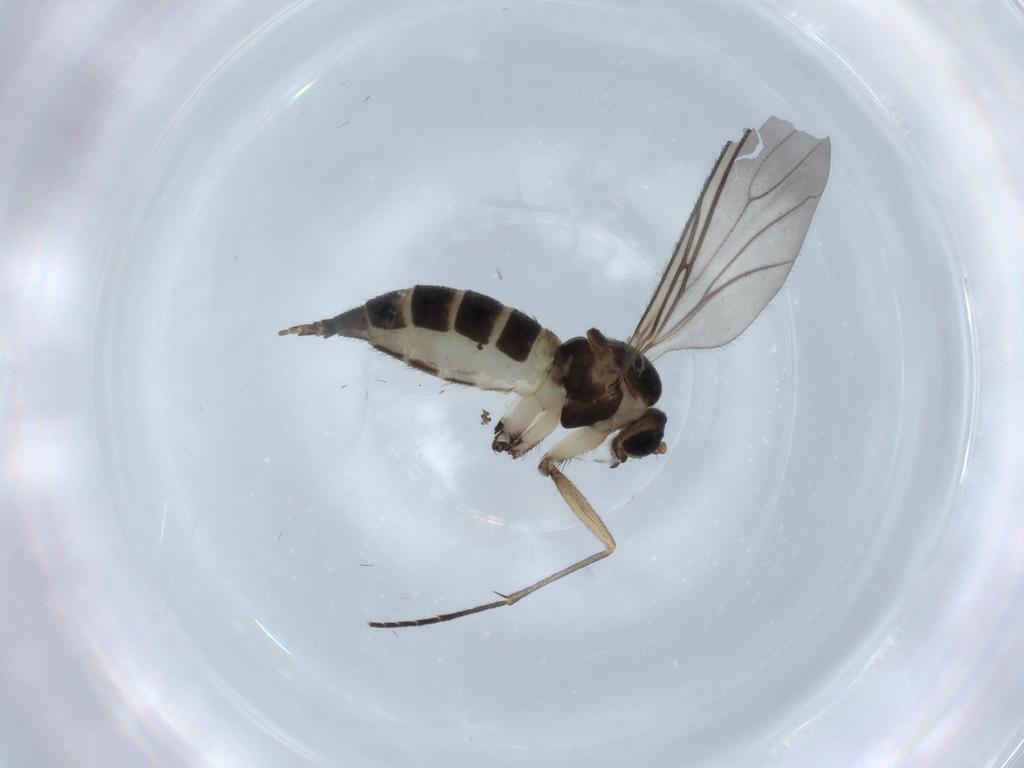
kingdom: Animalia
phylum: Arthropoda
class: Insecta
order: Diptera
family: Sciaridae
